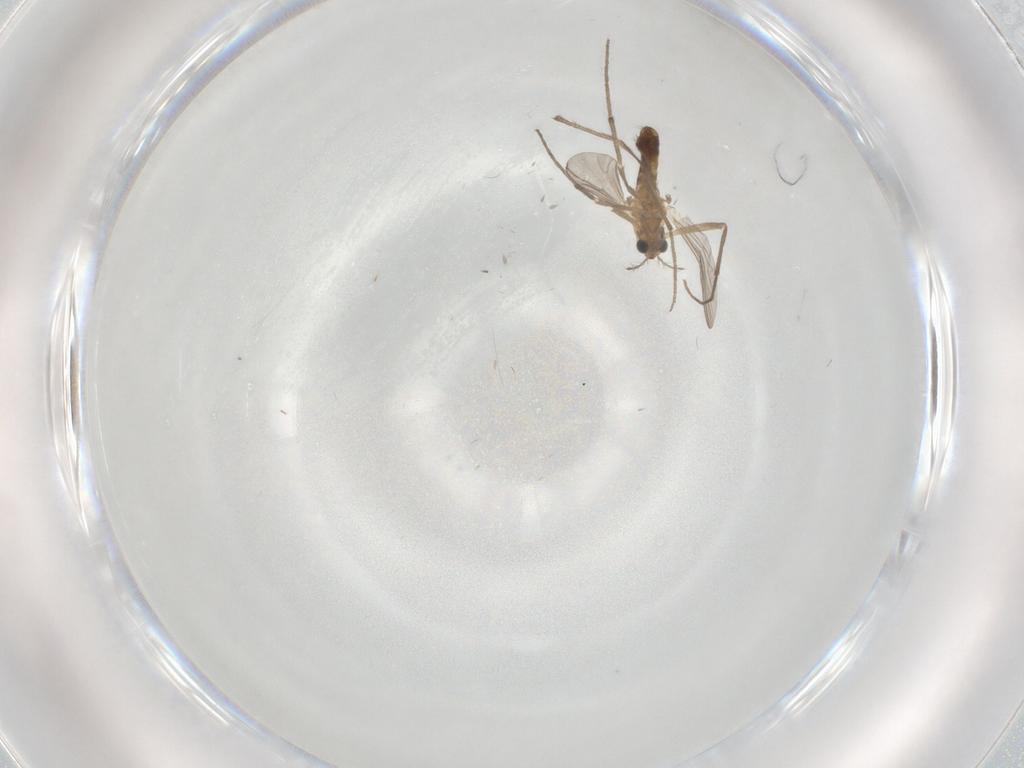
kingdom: Animalia
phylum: Arthropoda
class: Insecta
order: Diptera
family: Chironomidae
